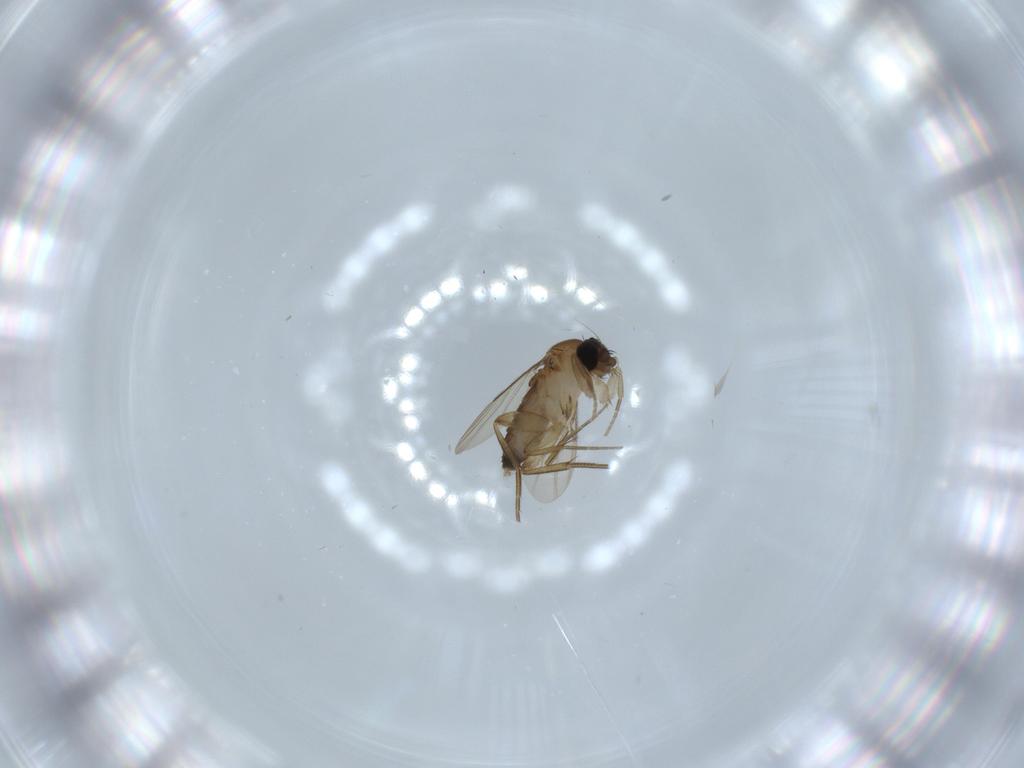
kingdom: Animalia
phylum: Arthropoda
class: Insecta
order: Diptera
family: Phoridae
